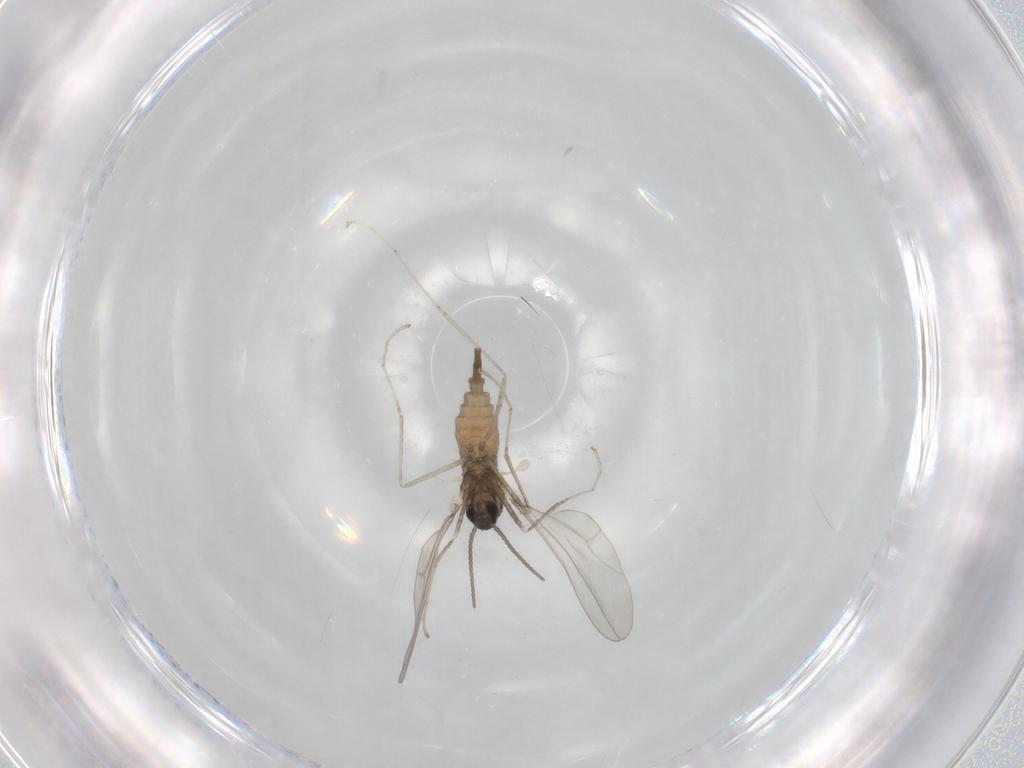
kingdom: Animalia
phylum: Arthropoda
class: Insecta
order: Diptera
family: Cecidomyiidae
